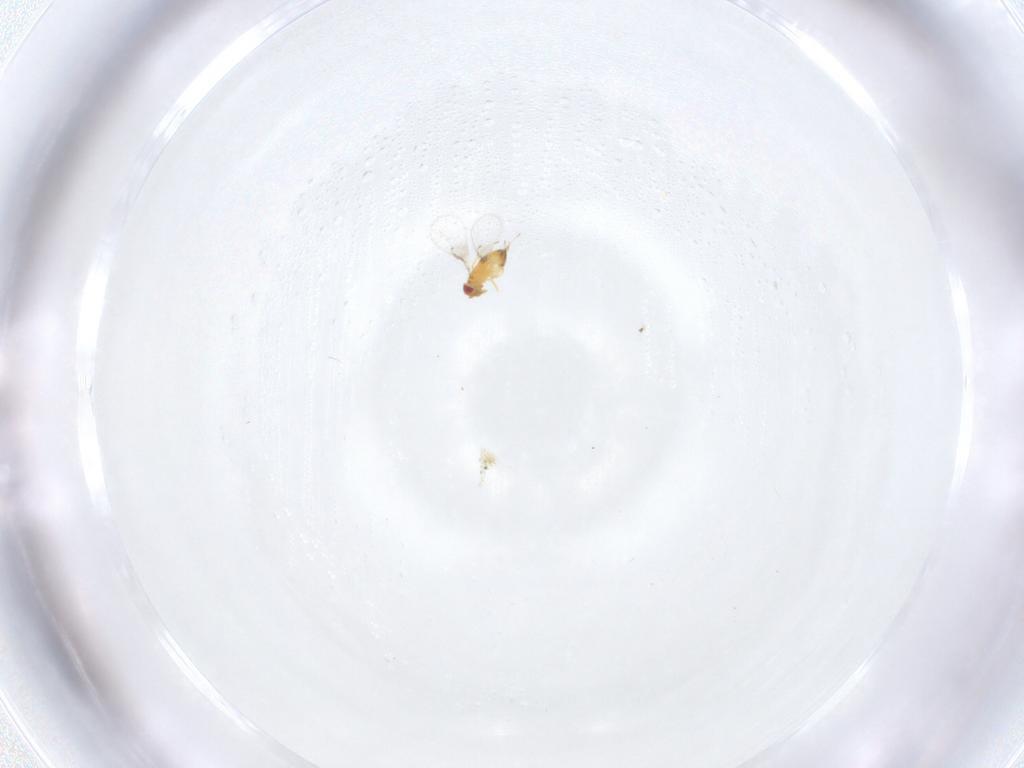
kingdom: Animalia
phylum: Arthropoda
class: Insecta
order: Hymenoptera
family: Trichogrammatidae
